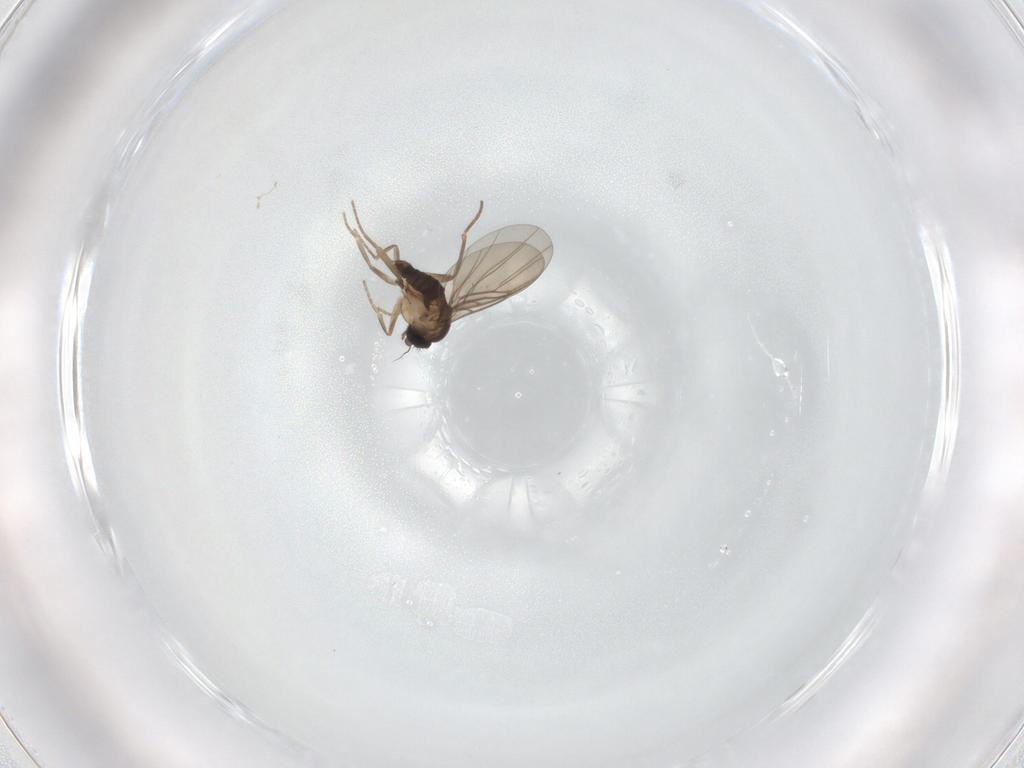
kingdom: Animalia
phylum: Arthropoda
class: Insecta
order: Diptera
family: Phoridae
